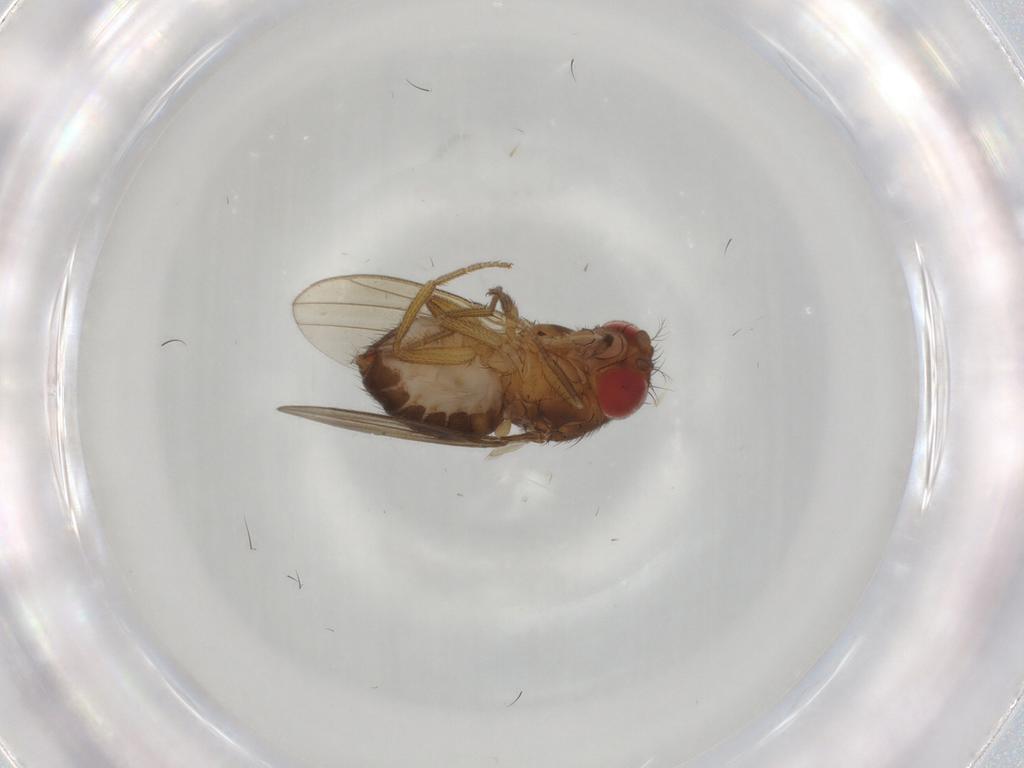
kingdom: Animalia
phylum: Arthropoda
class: Insecta
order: Diptera
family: Drosophilidae
